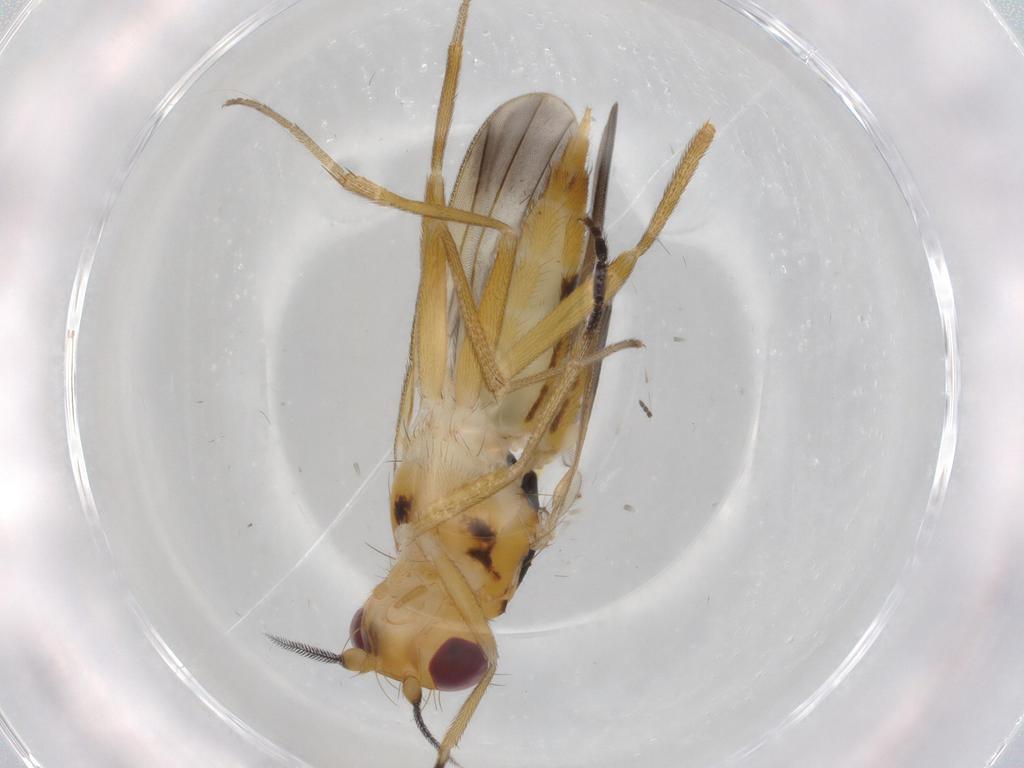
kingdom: Animalia
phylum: Arthropoda
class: Insecta
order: Diptera
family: Clusiidae
